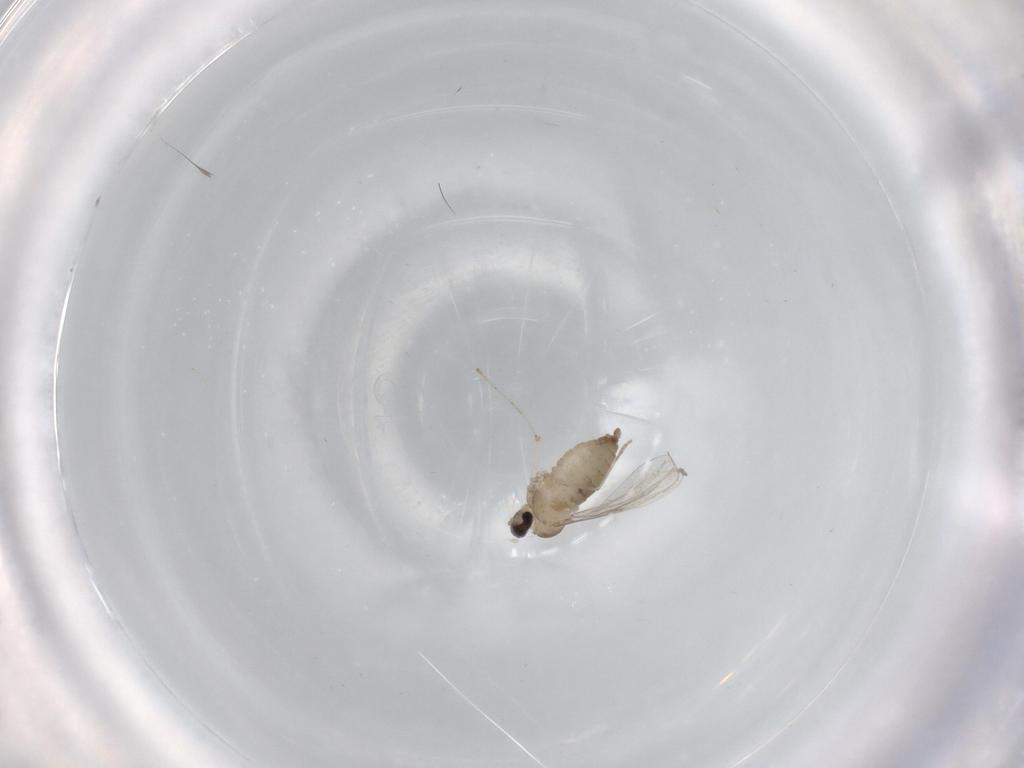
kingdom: Animalia
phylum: Arthropoda
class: Insecta
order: Diptera
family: Cecidomyiidae
